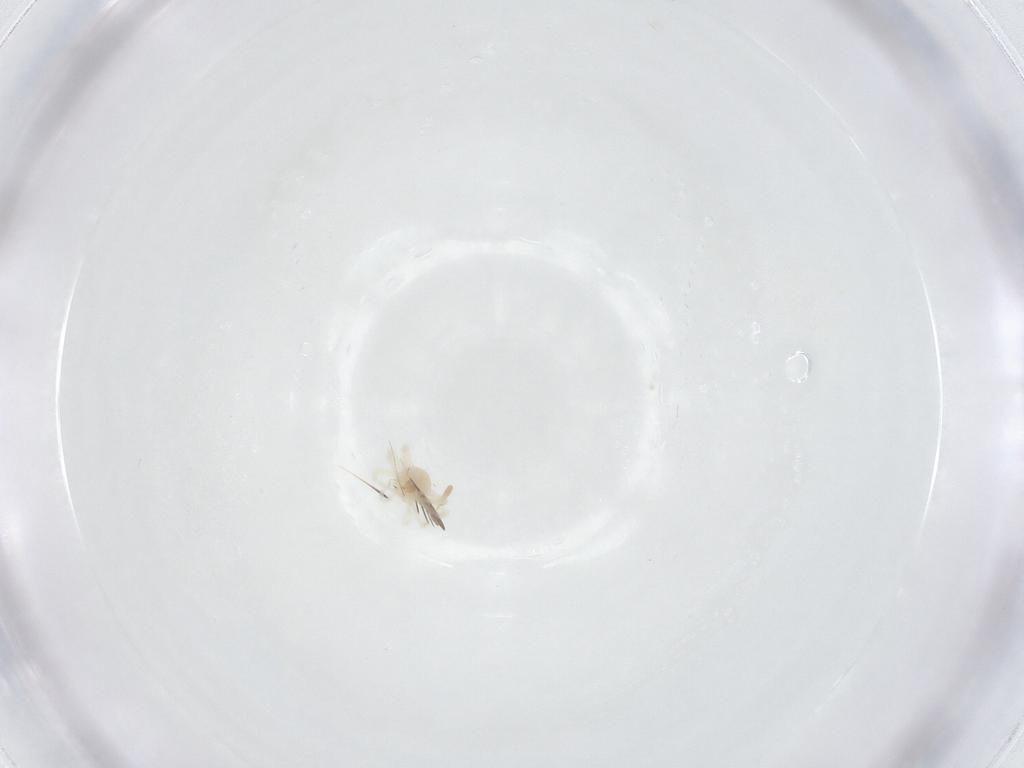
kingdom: Animalia
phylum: Arthropoda
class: Arachnida
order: Trombidiformes
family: Erythraeidae
